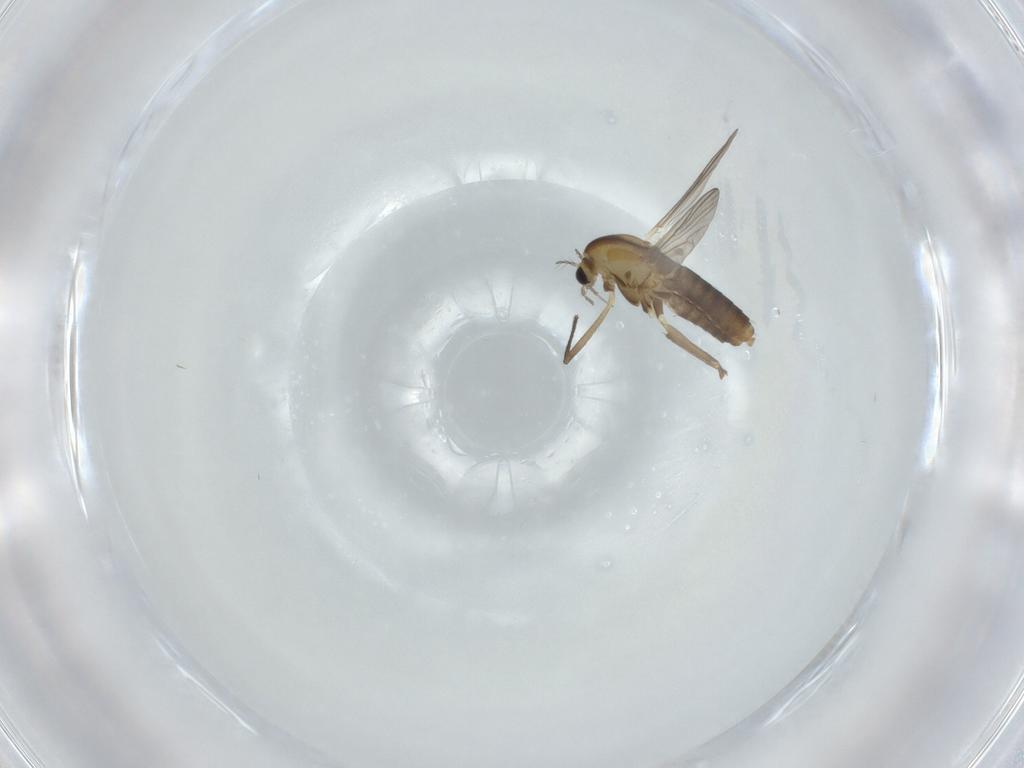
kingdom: Animalia
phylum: Arthropoda
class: Insecta
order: Diptera
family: Chironomidae
